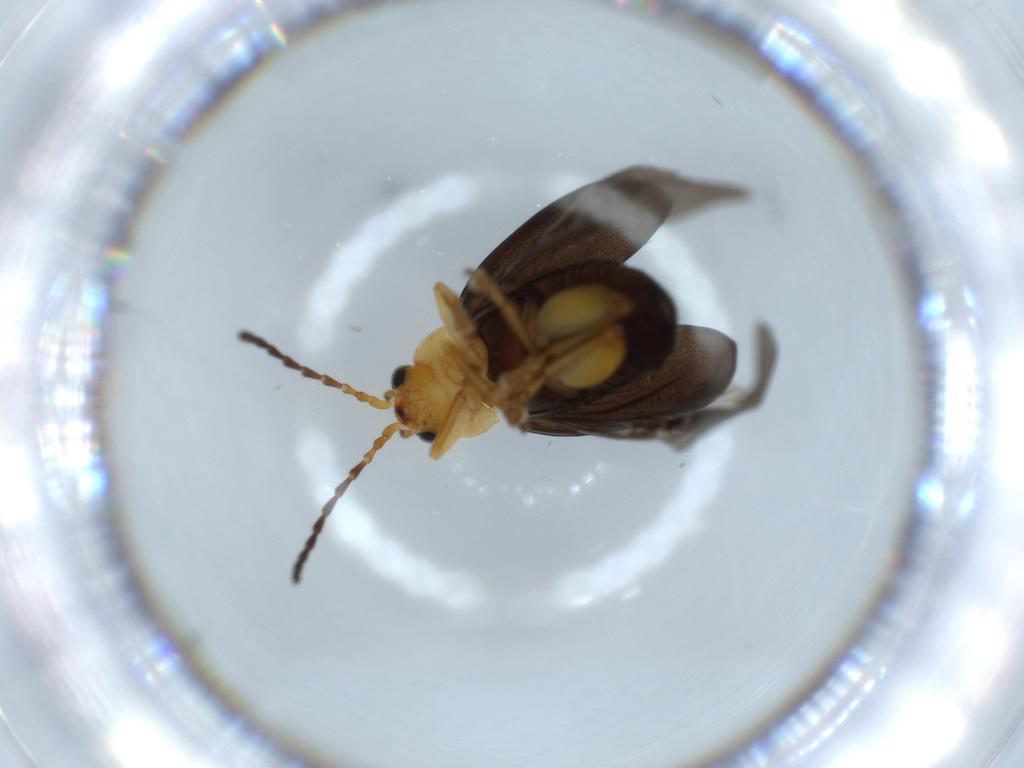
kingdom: Animalia
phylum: Arthropoda
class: Insecta
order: Coleoptera
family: Chrysomelidae
